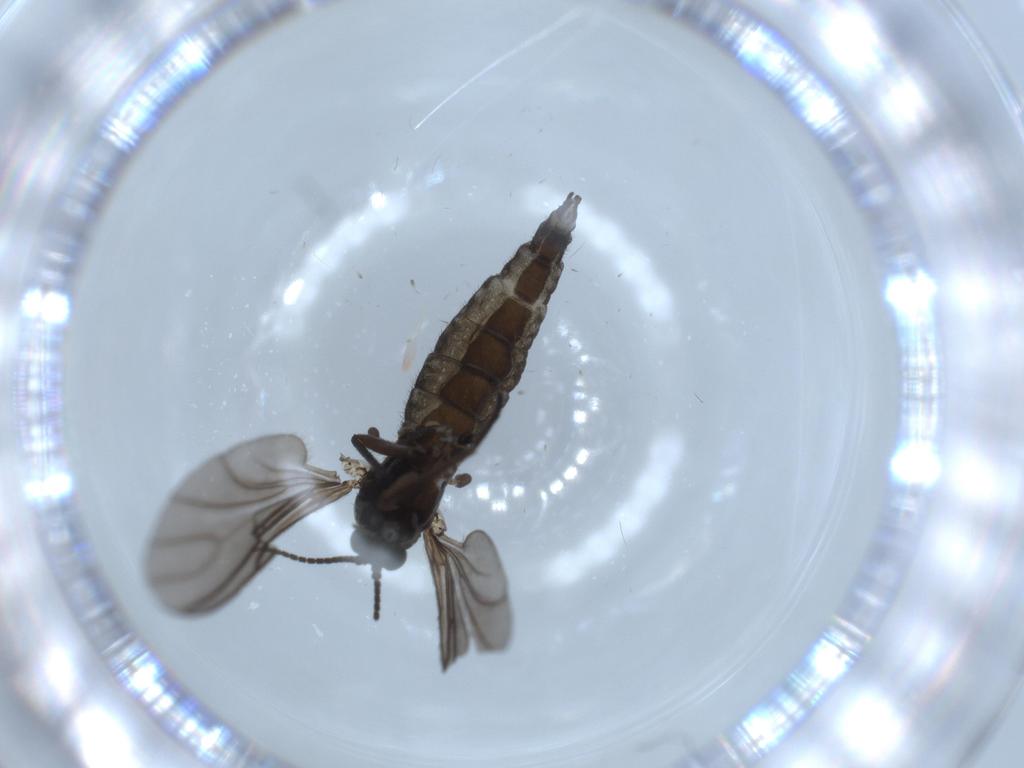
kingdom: Animalia
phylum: Arthropoda
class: Insecta
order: Diptera
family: Sciaridae
